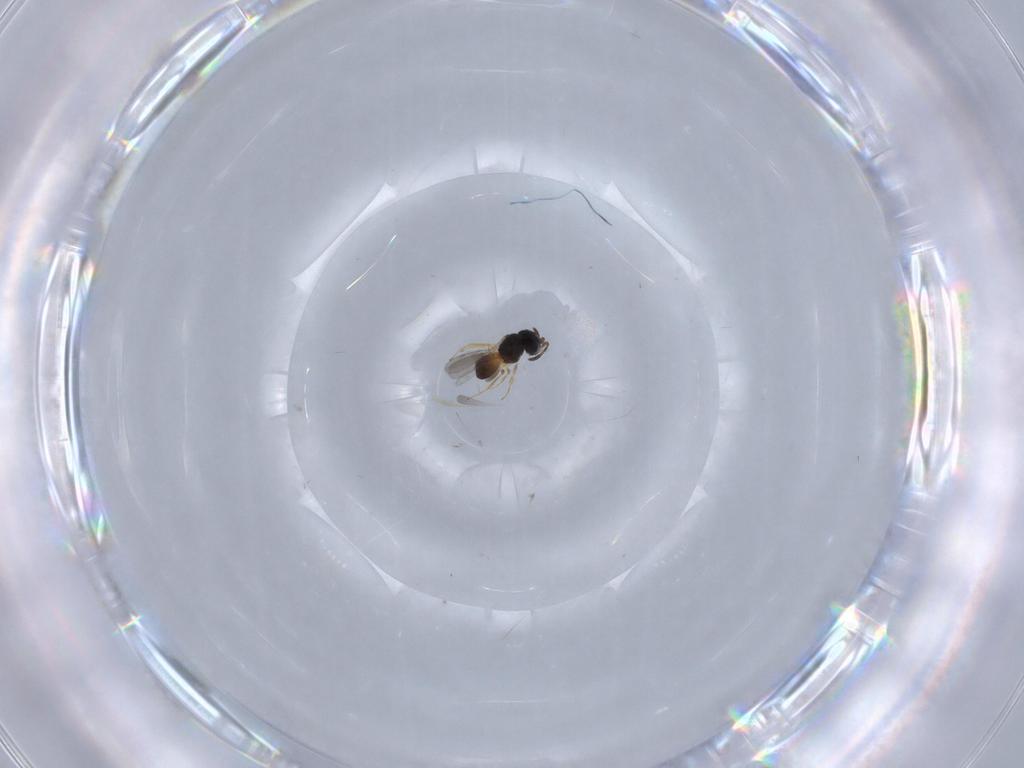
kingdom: Animalia
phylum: Arthropoda
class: Insecta
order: Hymenoptera
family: Scelionidae
